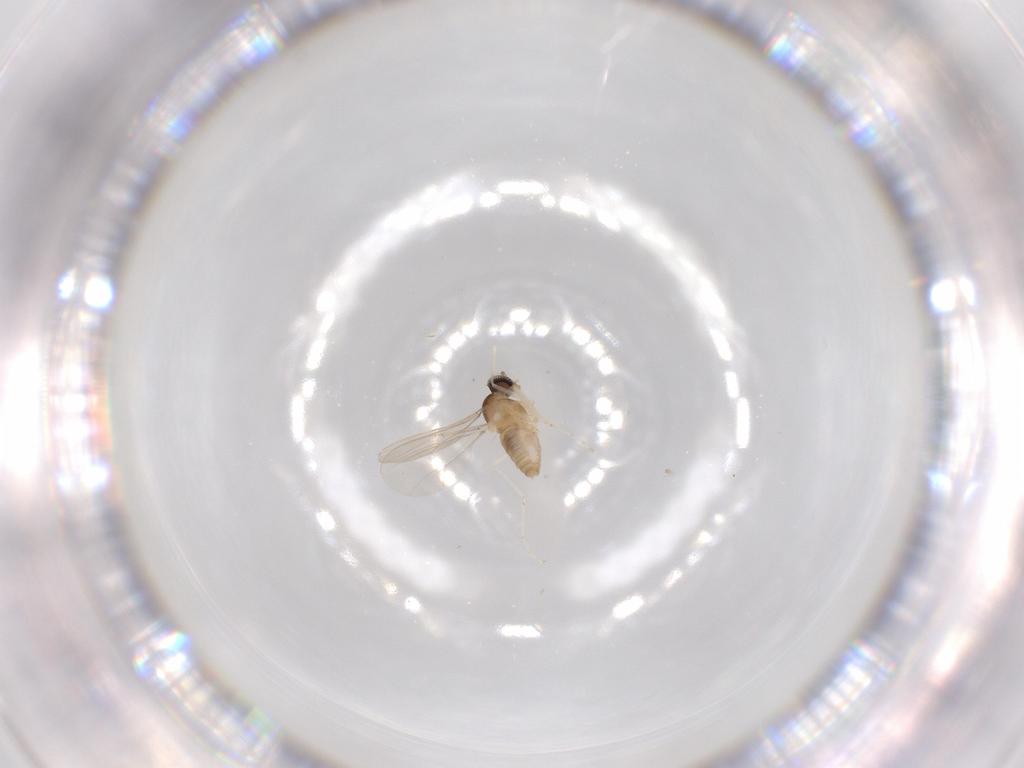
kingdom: Animalia
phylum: Arthropoda
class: Insecta
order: Diptera
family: Cecidomyiidae
